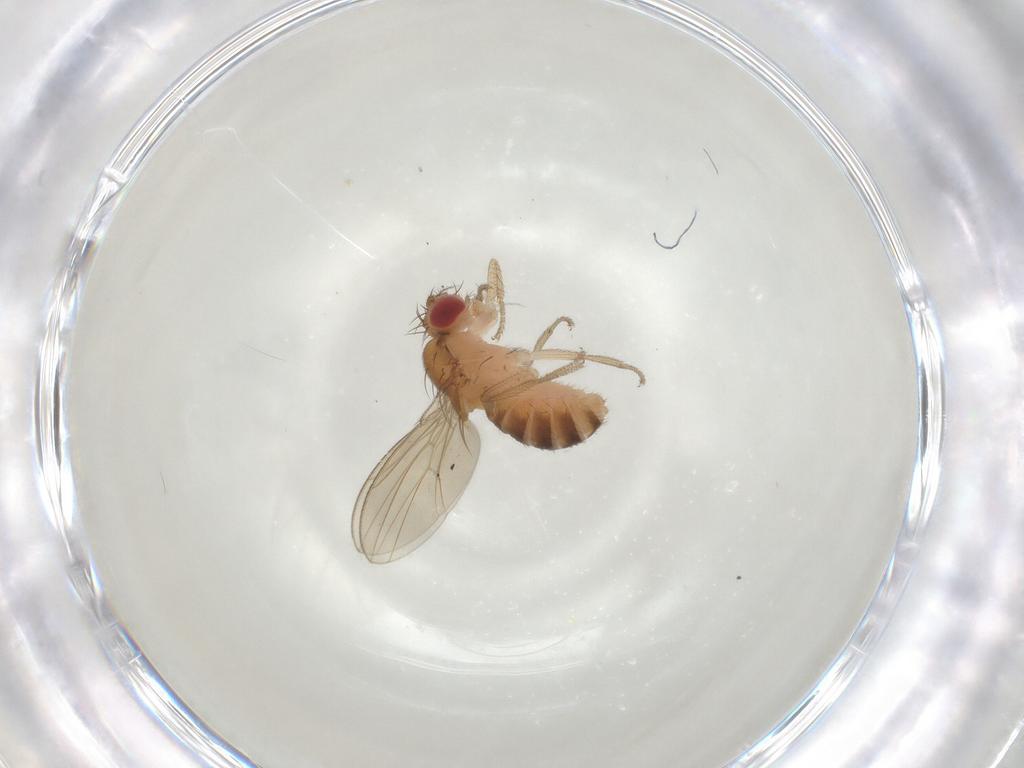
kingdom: Animalia
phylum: Arthropoda
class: Insecta
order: Diptera
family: Drosophilidae
